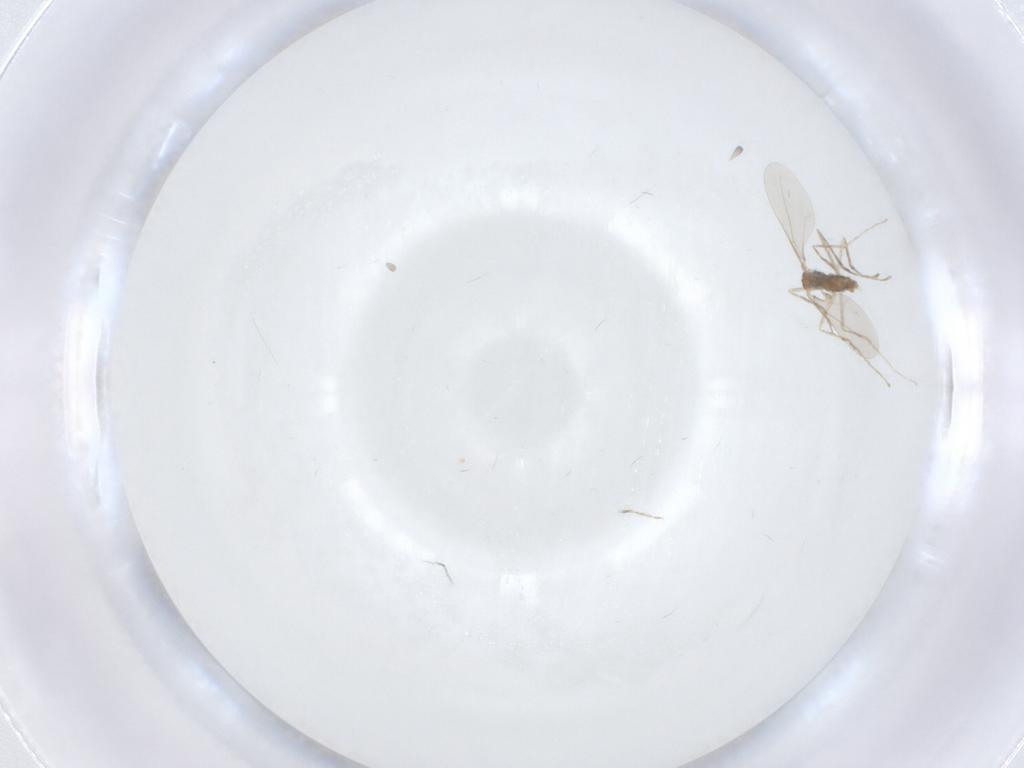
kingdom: Animalia
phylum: Arthropoda
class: Insecta
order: Diptera
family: Cecidomyiidae
